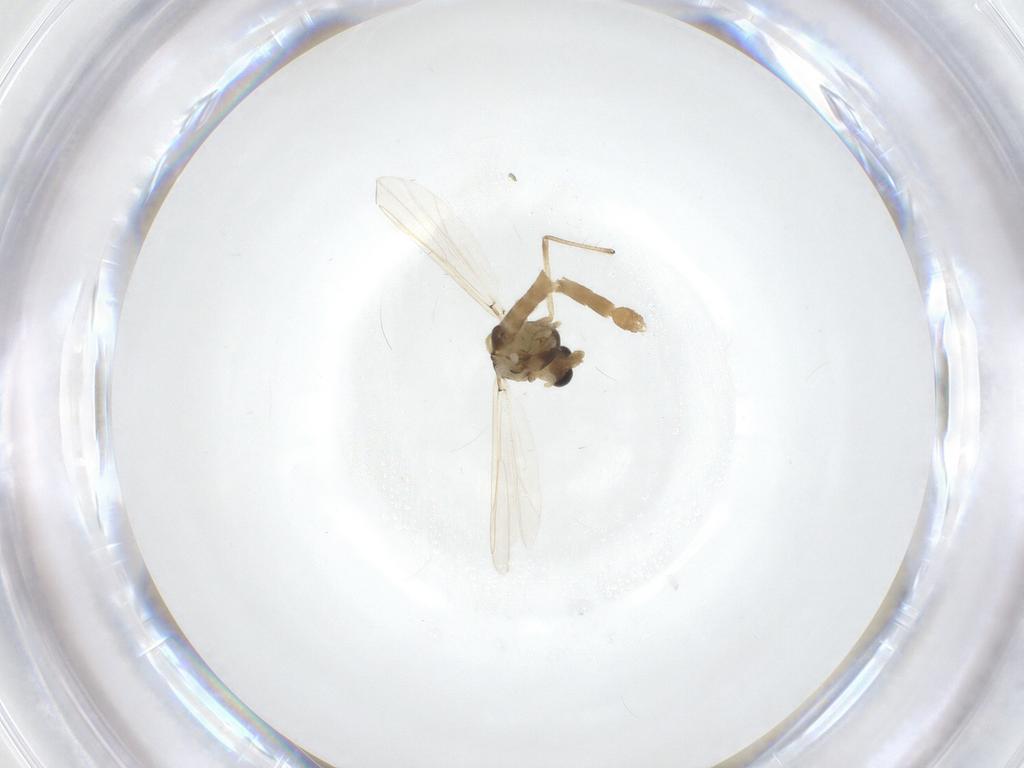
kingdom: Animalia
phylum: Arthropoda
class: Insecta
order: Diptera
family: Chironomidae
